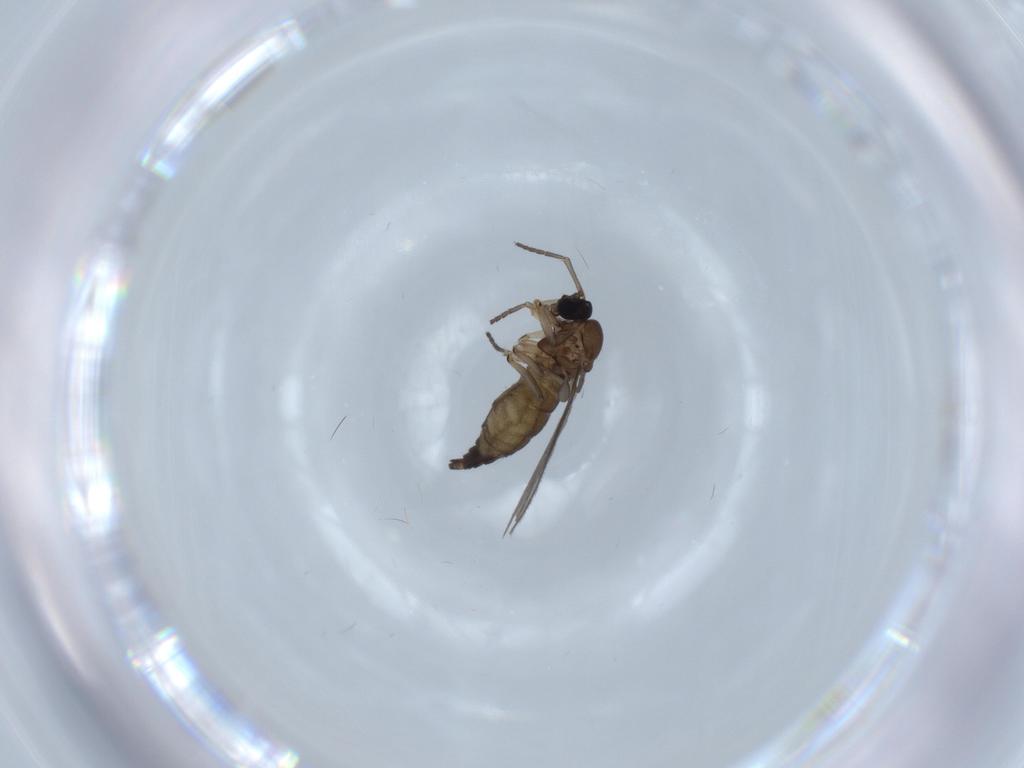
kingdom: Animalia
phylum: Arthropoda
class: Insecta
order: Diptera
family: Sciaridae
